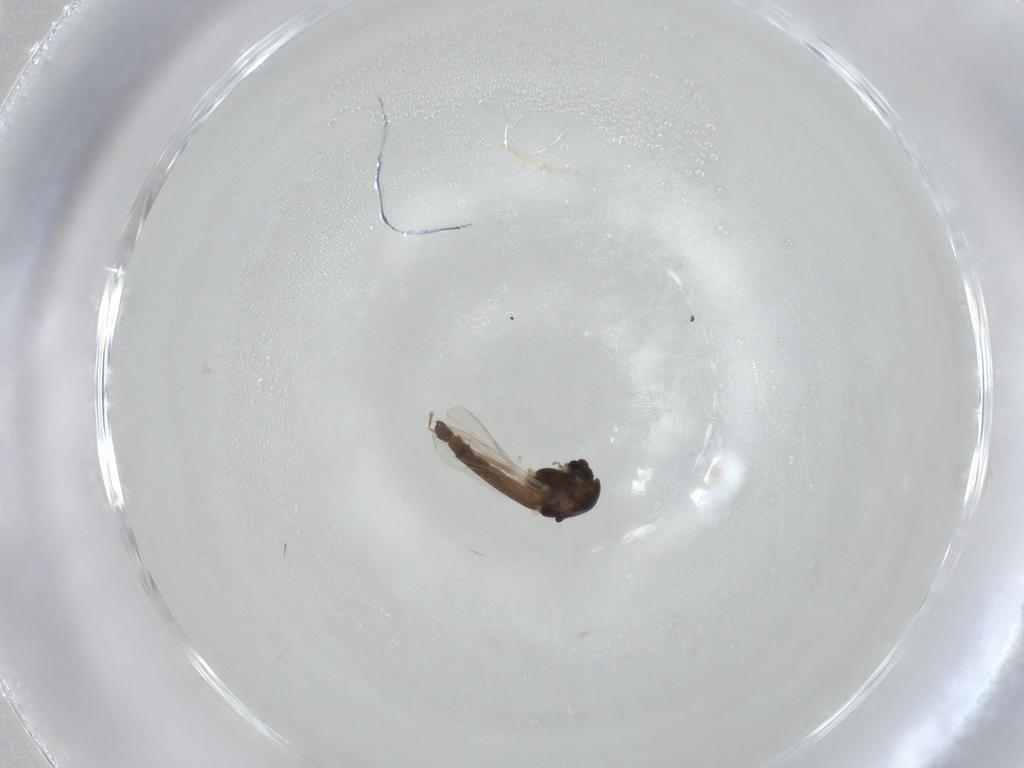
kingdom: Animalia
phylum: Arthropoda
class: Insecta
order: Diptera
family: Chironomidae
